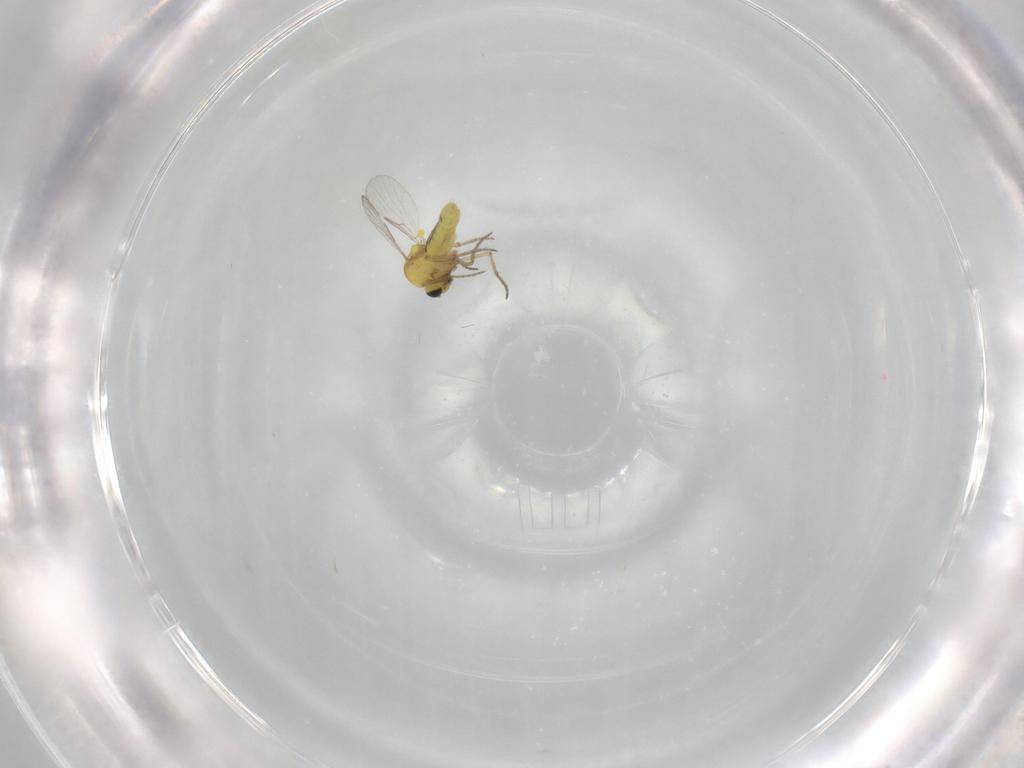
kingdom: Animalia
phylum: Arthropoda
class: Insecta
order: Diptera
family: Ceratopogonidae
